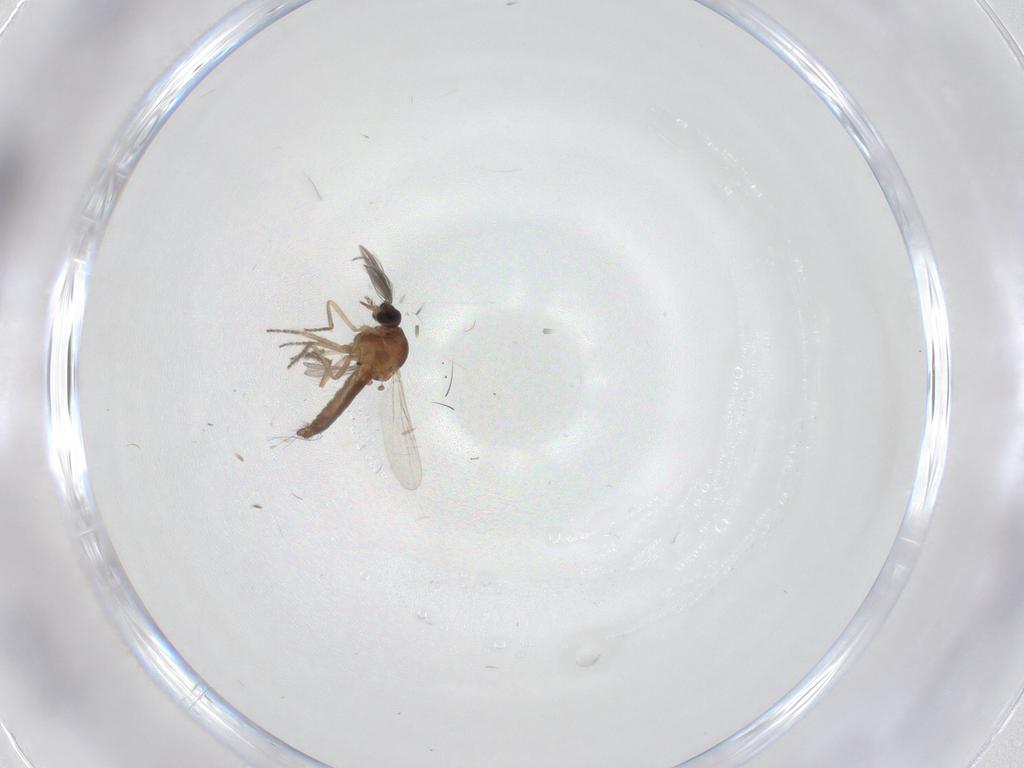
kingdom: Animalia
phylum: Arthropoda
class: Insecta
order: Diptera
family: Ceratopogonidae
